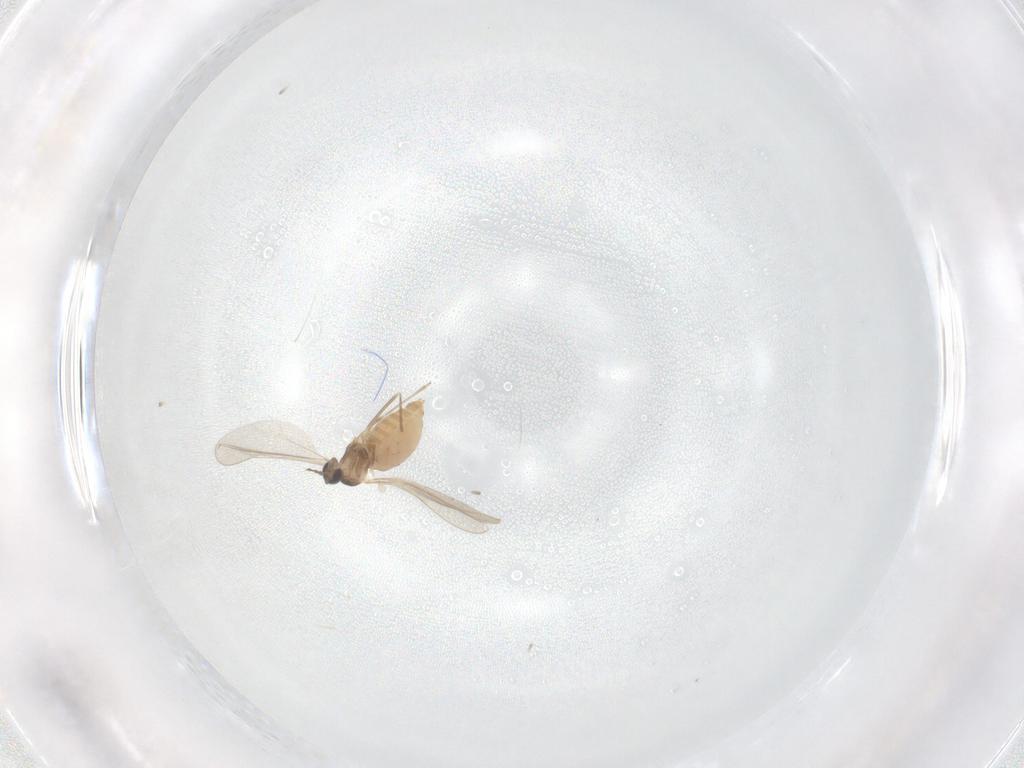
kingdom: Animalia
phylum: Arthropoda
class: Insecta
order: Diptera
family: Cecidomyiidae
